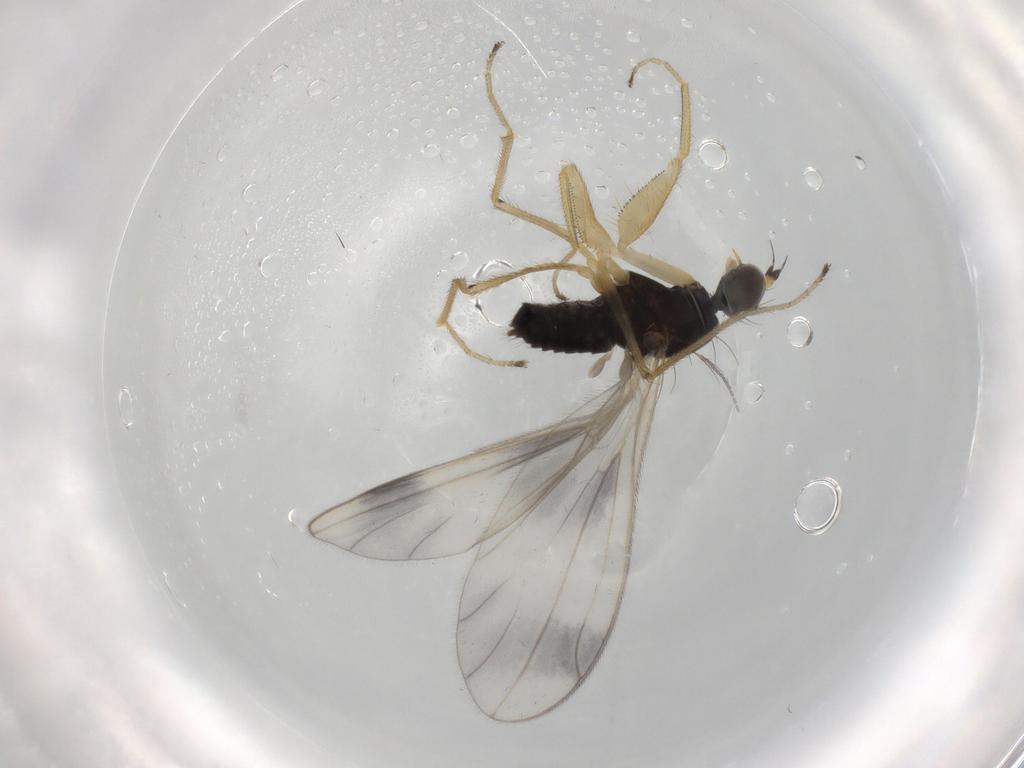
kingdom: Animalia
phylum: Arthropoda
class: Insecta
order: Diptera
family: Empididae
